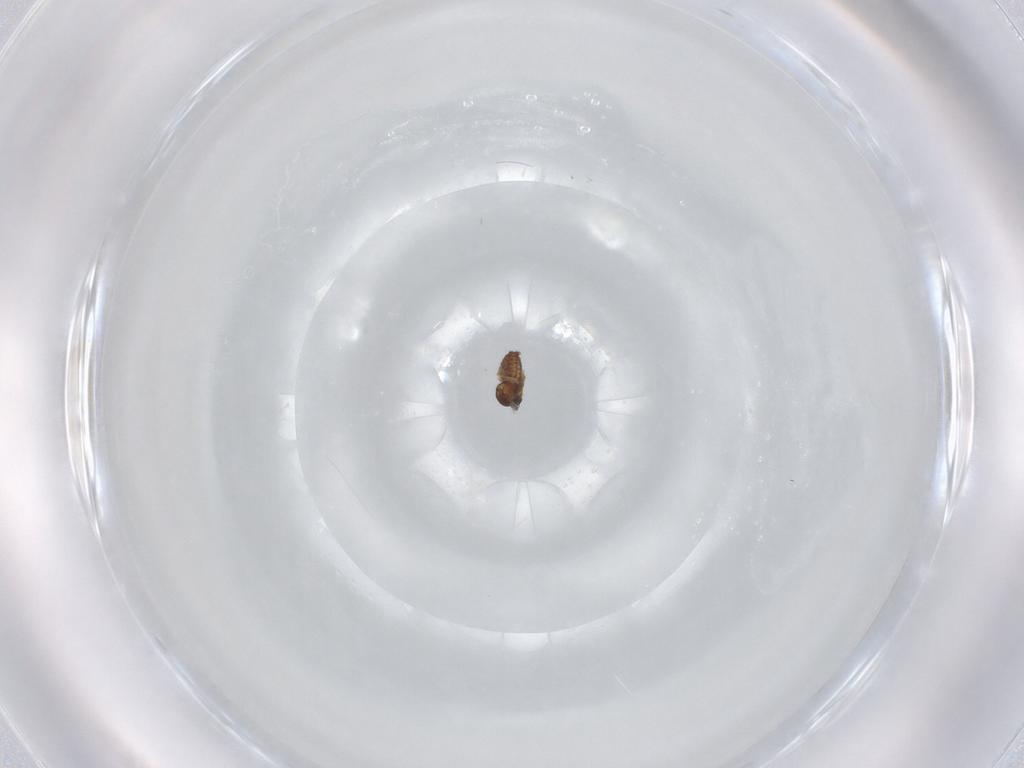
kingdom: Animalia
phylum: Arthropoda
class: Insecta
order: Diptera
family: Cecidomyiidae
